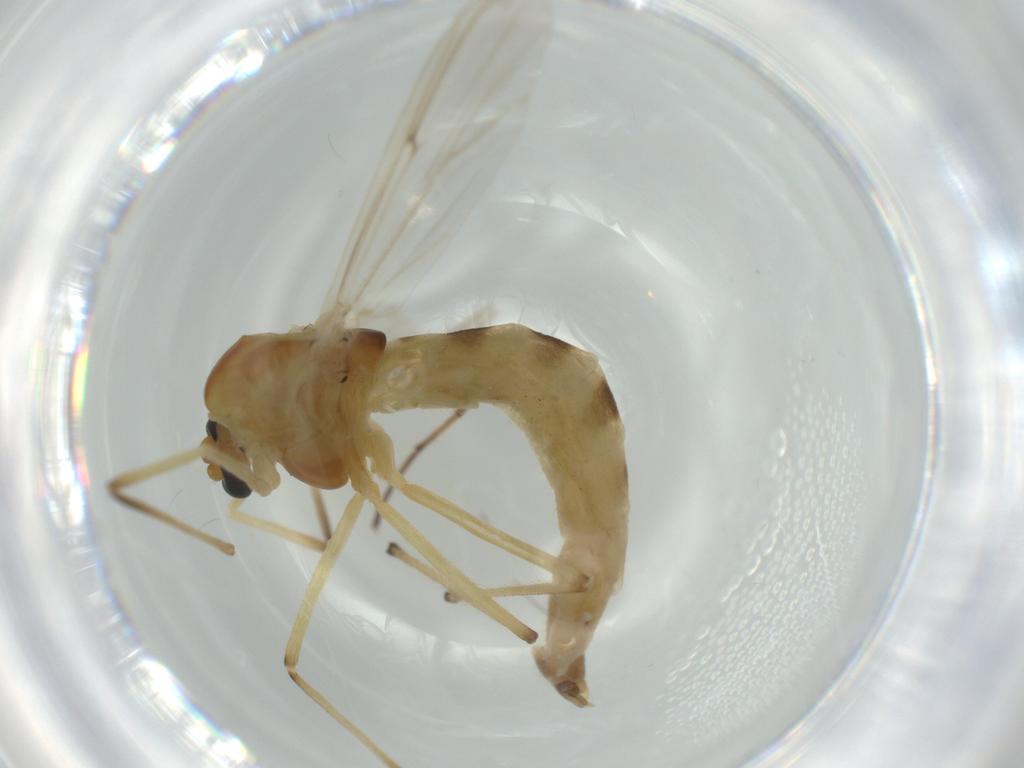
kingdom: Animalia
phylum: Arthropoda
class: Insecta
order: Diptera
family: Chironomidae
